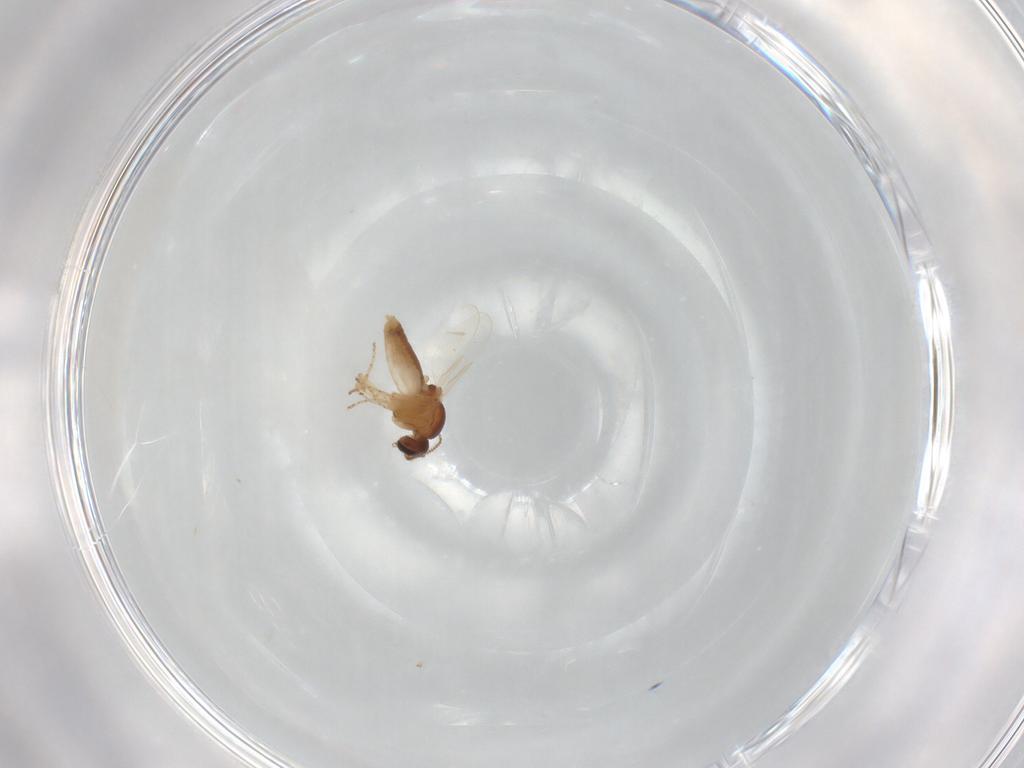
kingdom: Animalia
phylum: Arthropoda
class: Insecta
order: Diptera
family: Ceratopogonidae
